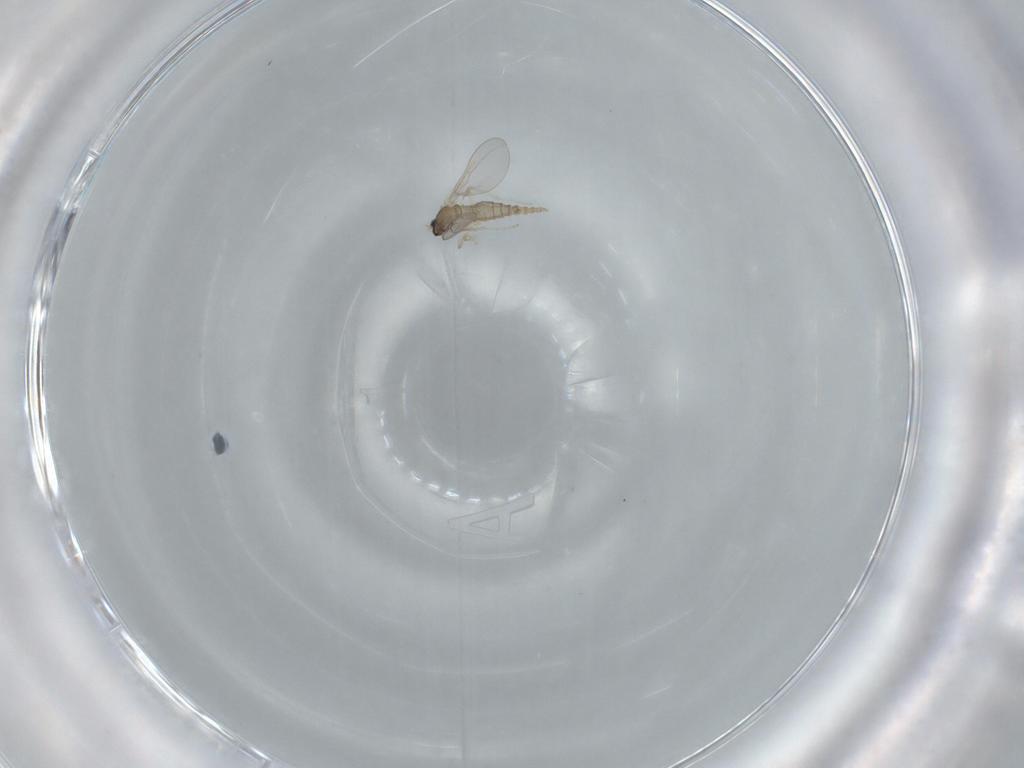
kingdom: Animalia
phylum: Arthropoda
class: Insecta
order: Diptera
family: Cecidomyiidae
